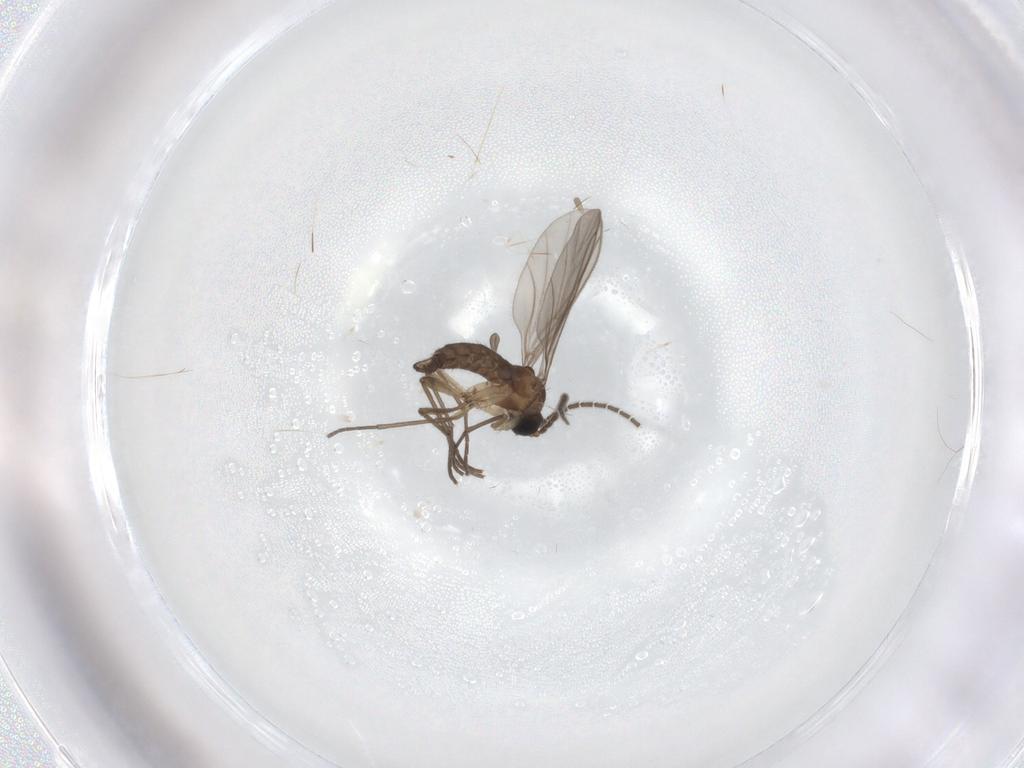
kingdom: Animalia
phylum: Arthropoda
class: Insecta
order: Diptera
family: Sciaridae
